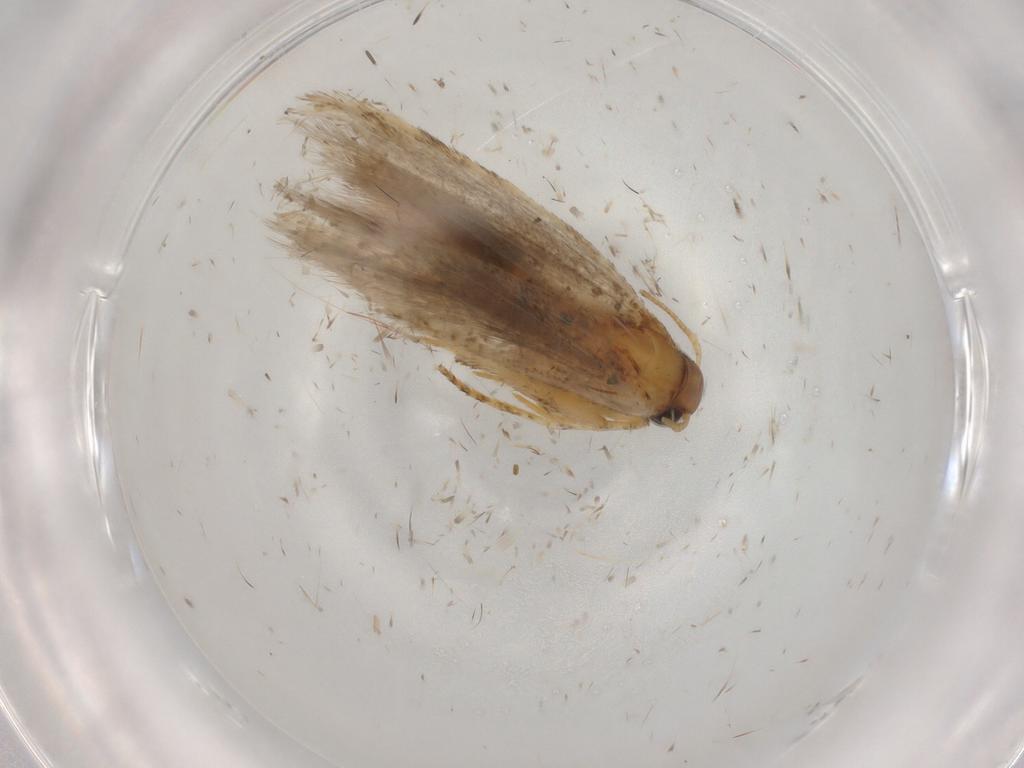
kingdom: Animalia
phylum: Arthropoda
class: Insecta
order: Lepidoptera
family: Gelechiidae
